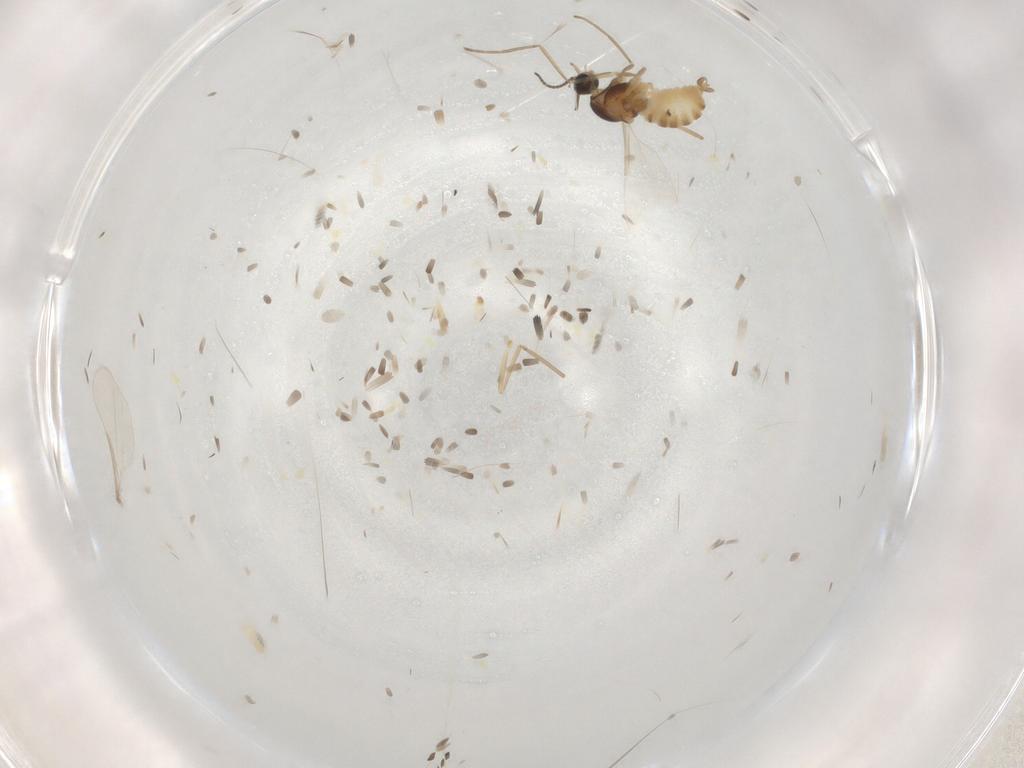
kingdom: Animalia
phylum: Arthropoda
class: Insecta
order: Diptera
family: Cecidomyiidae
